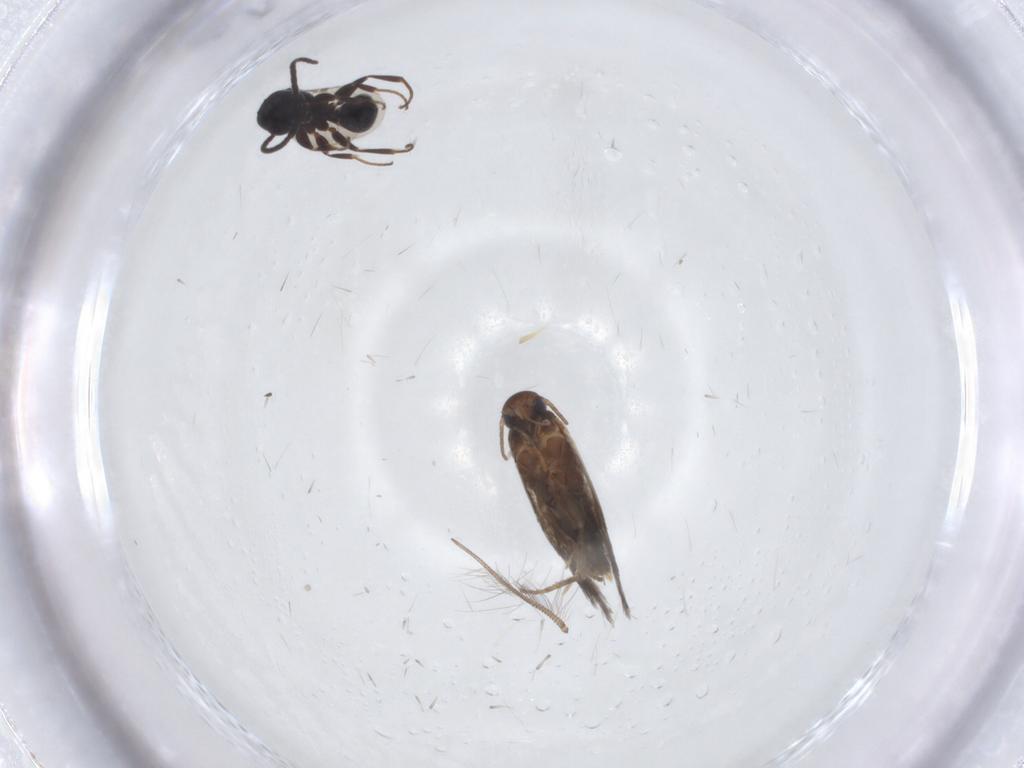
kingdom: Animalia
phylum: Arthropoda
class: Insecta
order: Hymenoptera
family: Bethylidae
